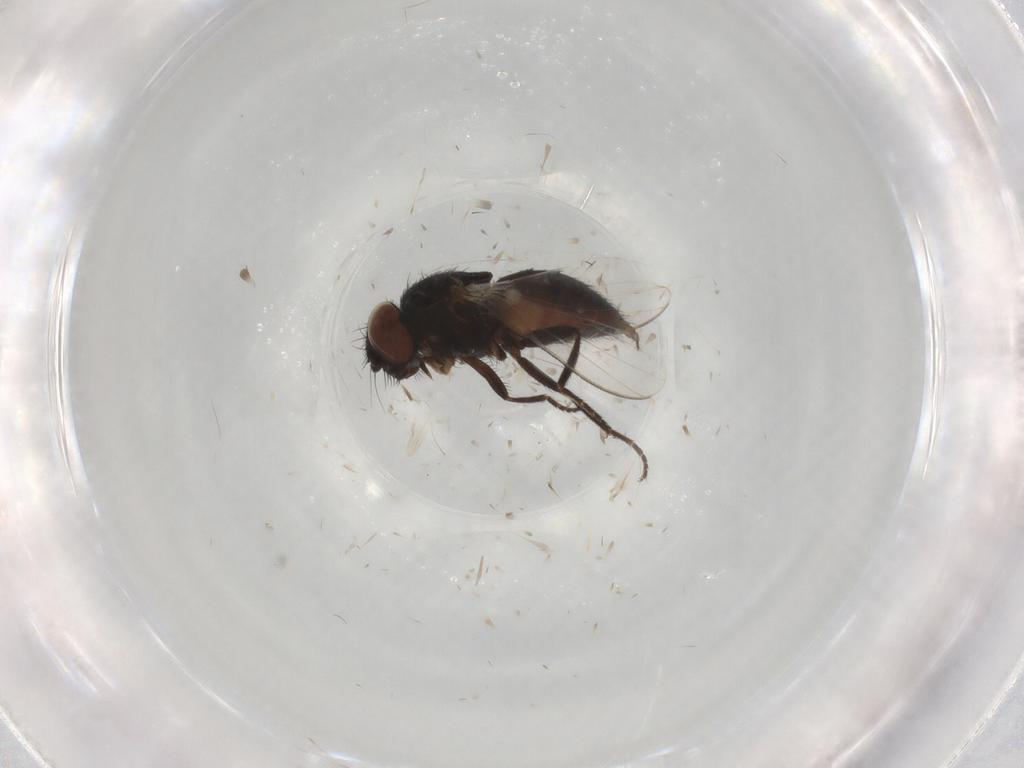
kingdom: Animalia
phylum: Arthropoda
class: Insecta
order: Diptera
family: Milichiidae
